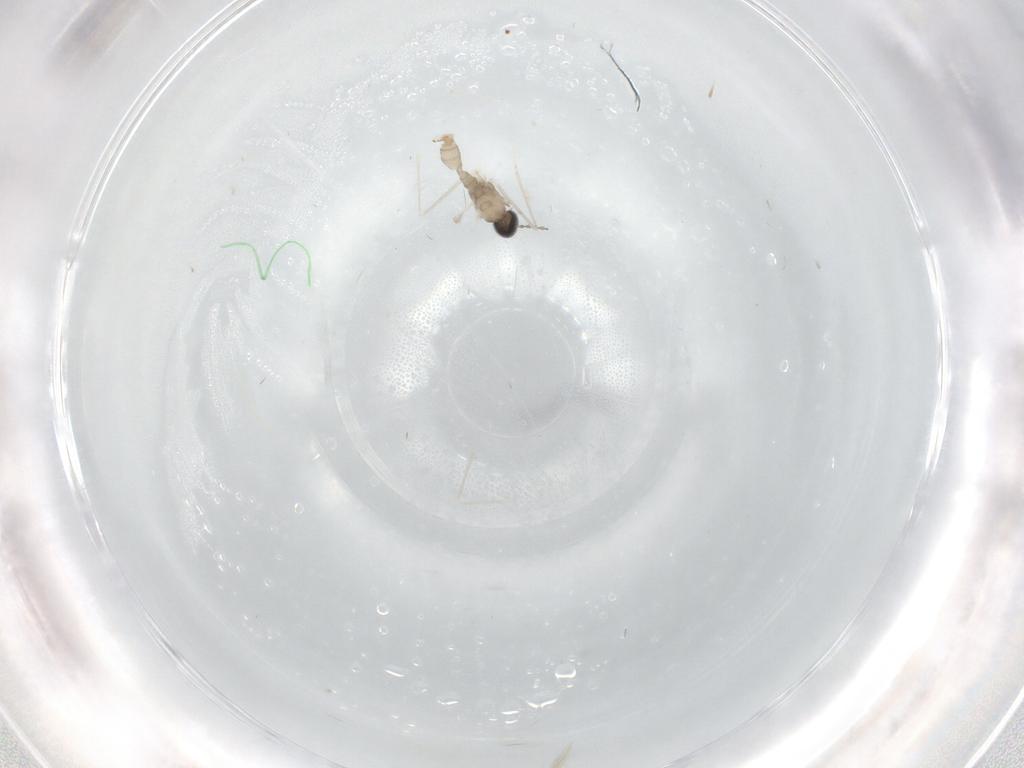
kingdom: Animalia
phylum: Arthropoda
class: Insecta
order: Diptera
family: Cecidomyiidae
